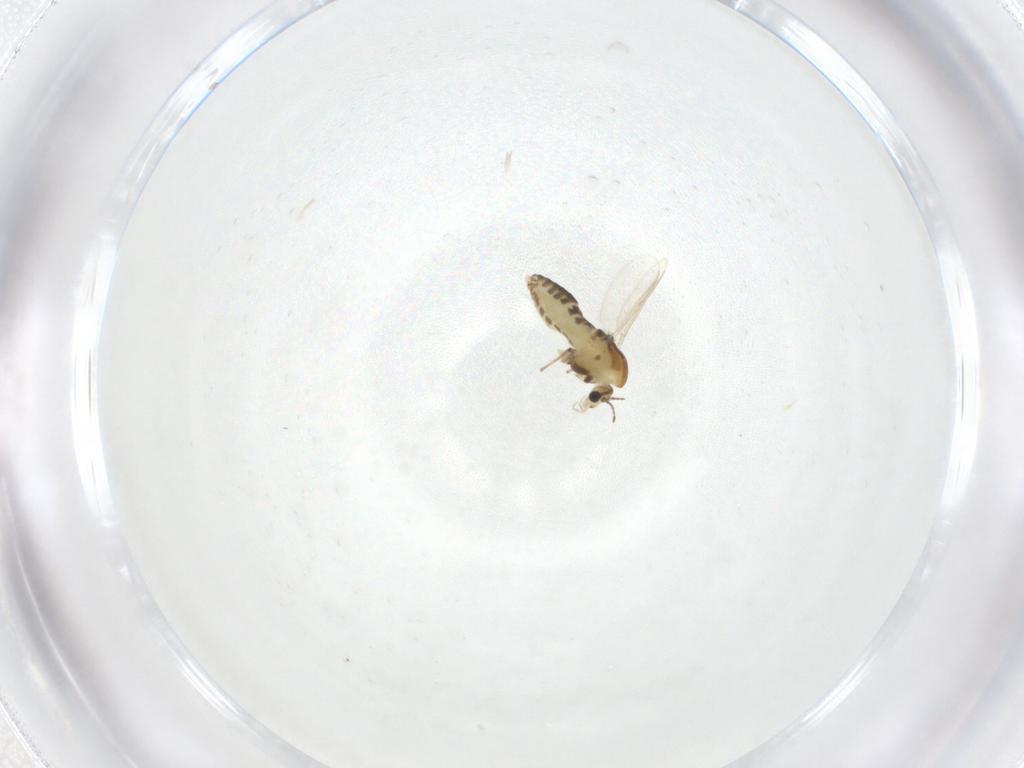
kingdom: Animalia
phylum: Arthropoda
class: Insecta
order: Diptera
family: Chironomidae
